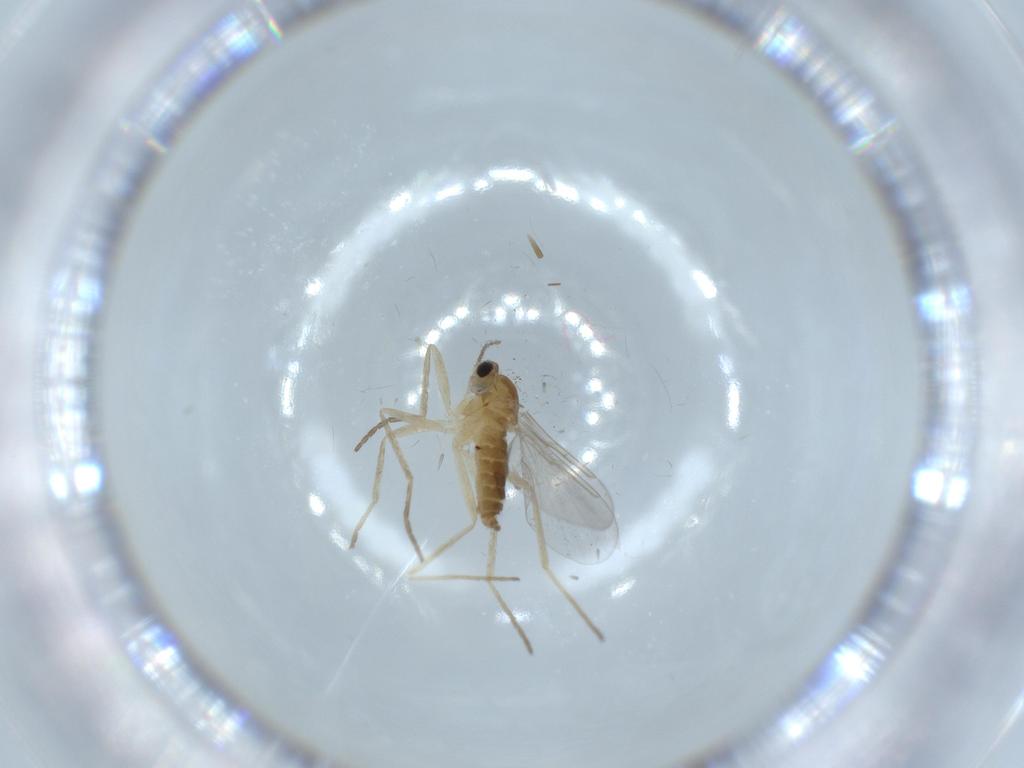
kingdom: Animalia
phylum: Arthropoda
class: Insecta
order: Diptera
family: Cecidomyiidae
